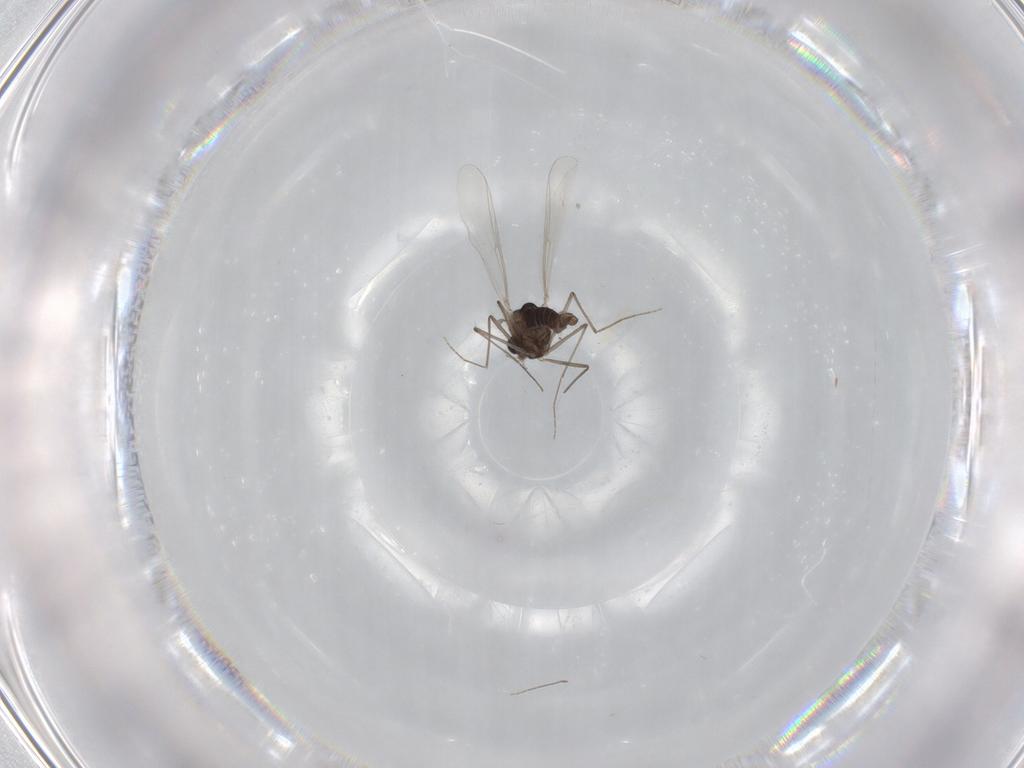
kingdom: Animalia
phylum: Arthropoda
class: Insecta
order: Diptera
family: Chironomidae
